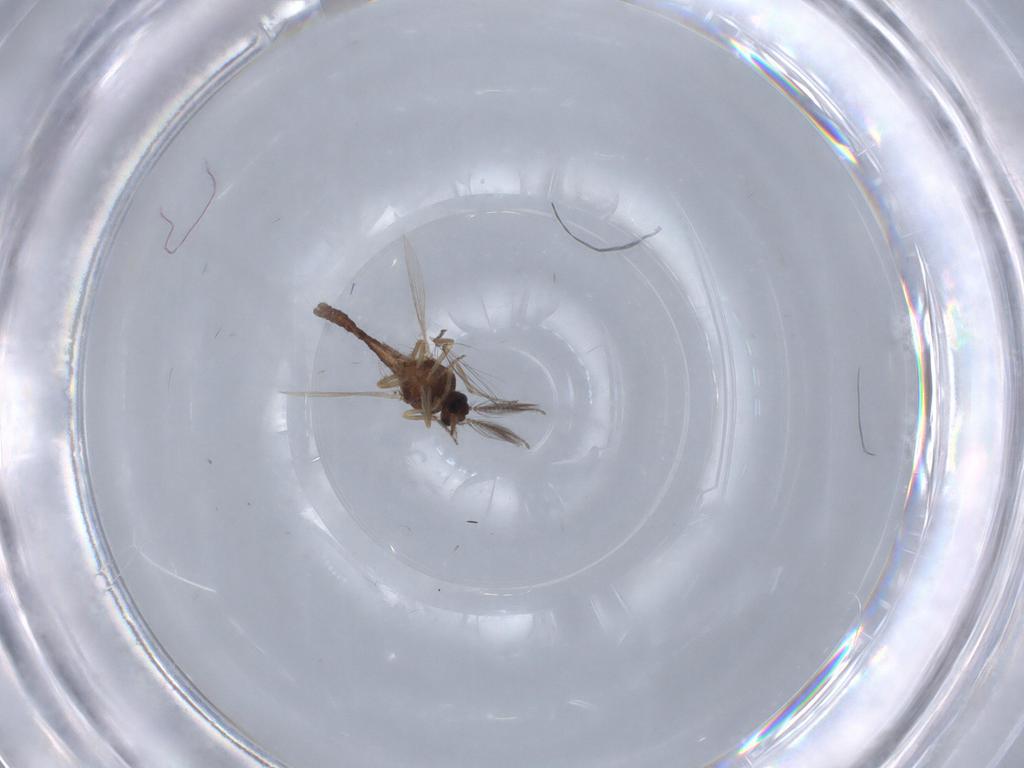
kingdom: Animalia
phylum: Arthropoda
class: Insecta
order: Diptera
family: Ceratopogonidae
